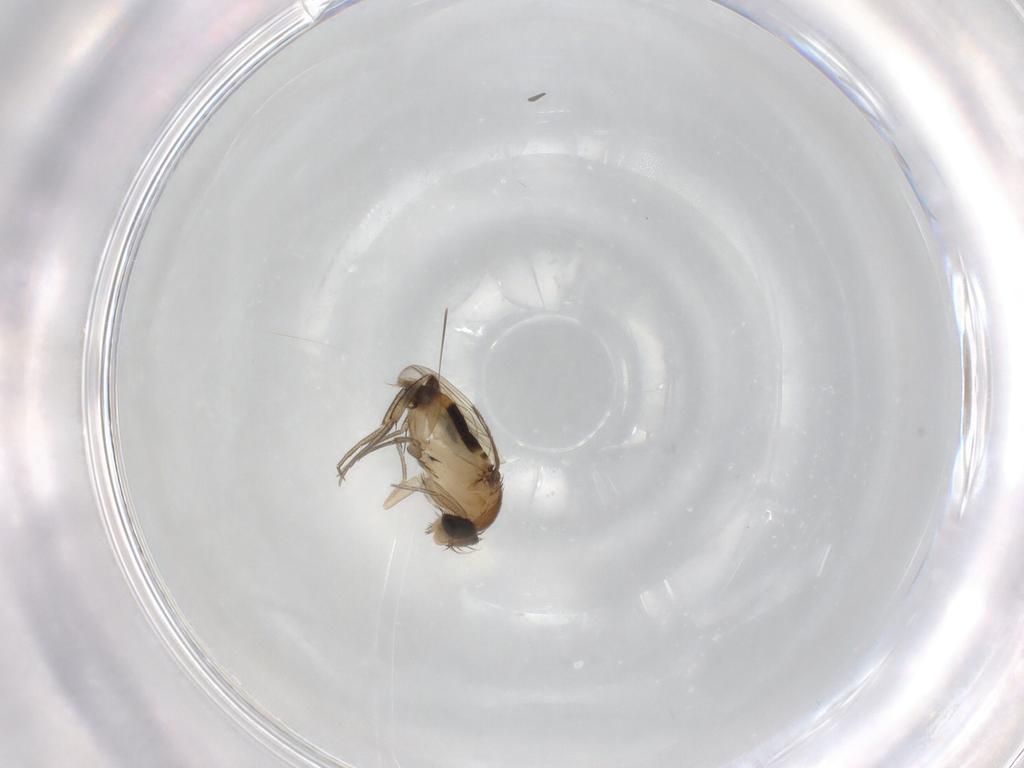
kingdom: Animalia
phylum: Arthropoda
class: Insecta
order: Diptera
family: Phoridae
